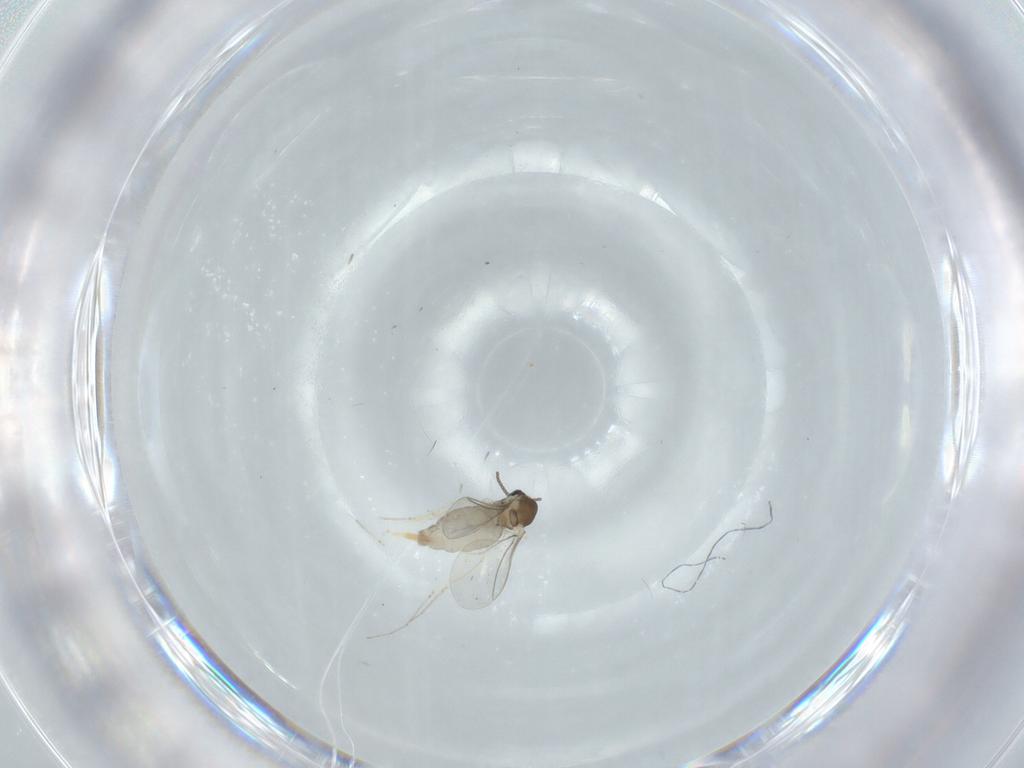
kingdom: Animalia
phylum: Arthropoda
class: Insecta
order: Diptera
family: Cecidomyiidae
